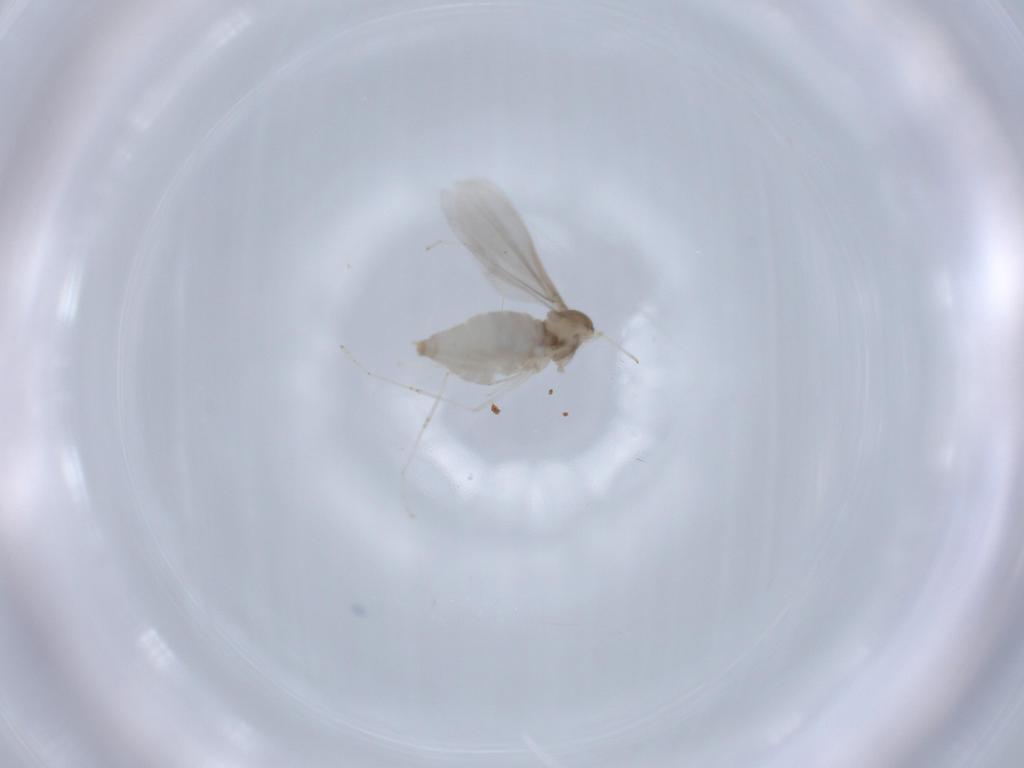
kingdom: Animalia
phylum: Arthropoda
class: Insecta
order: Diptera
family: Cecidomyiidae
